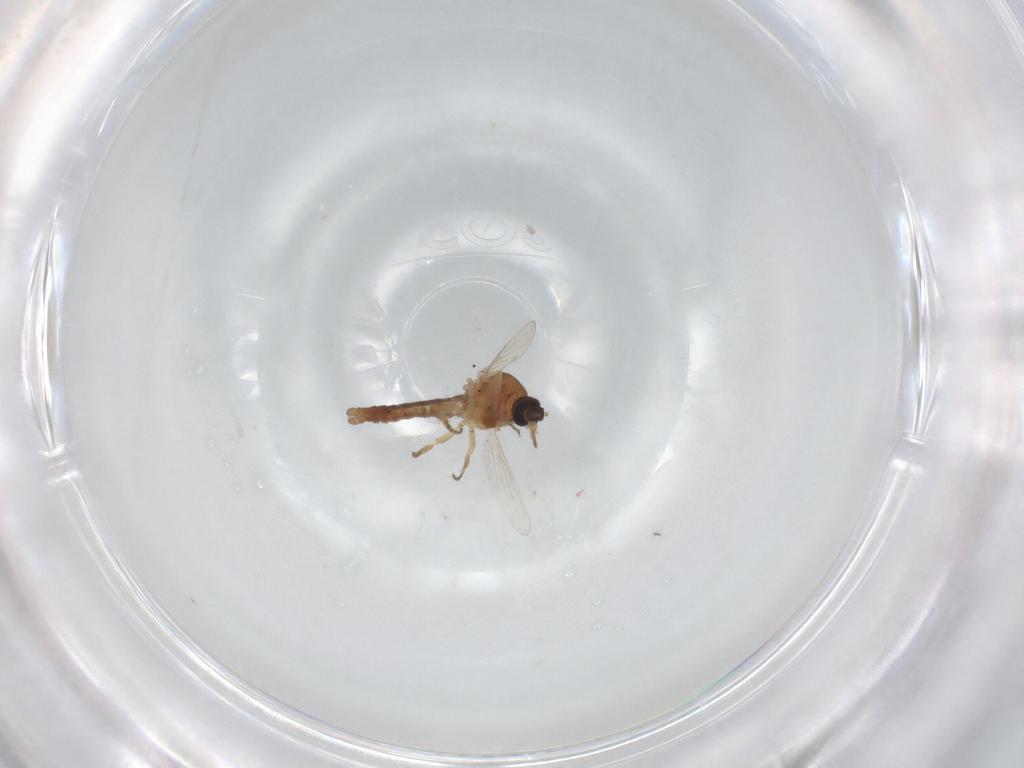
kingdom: Animalia
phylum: Arthropoda
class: Insecta
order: Diptera
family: Ceratopogonidae
